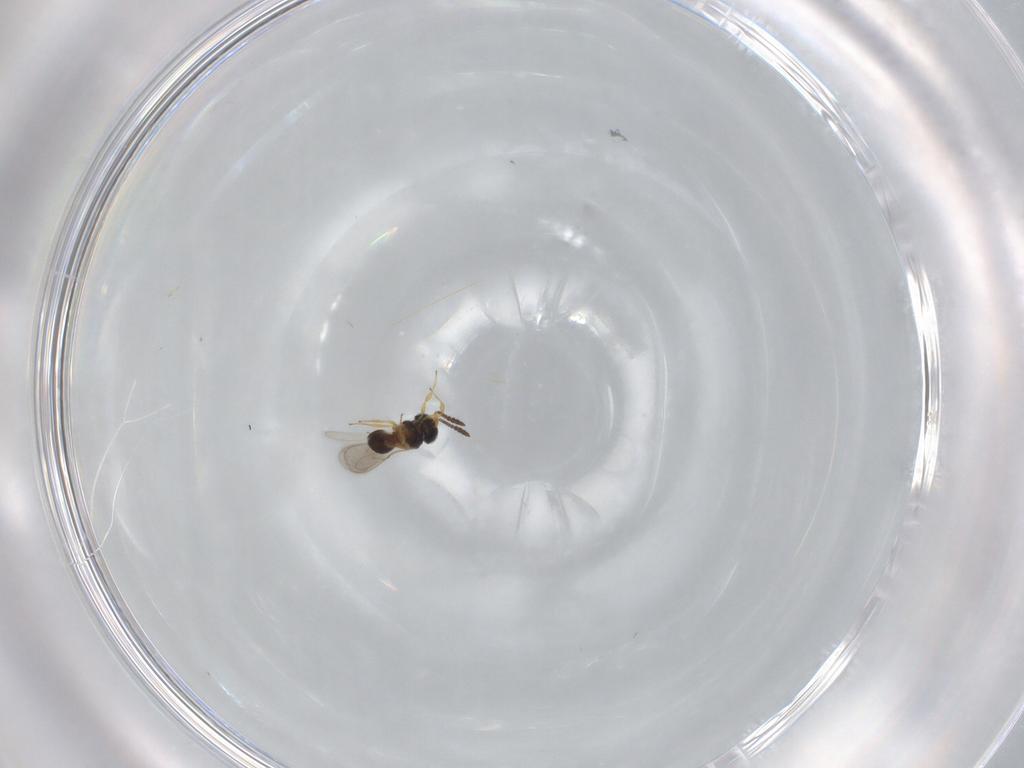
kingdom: Animalia
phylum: Arthropoda
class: Insecta
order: Hymenoptera
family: Scelionidae
